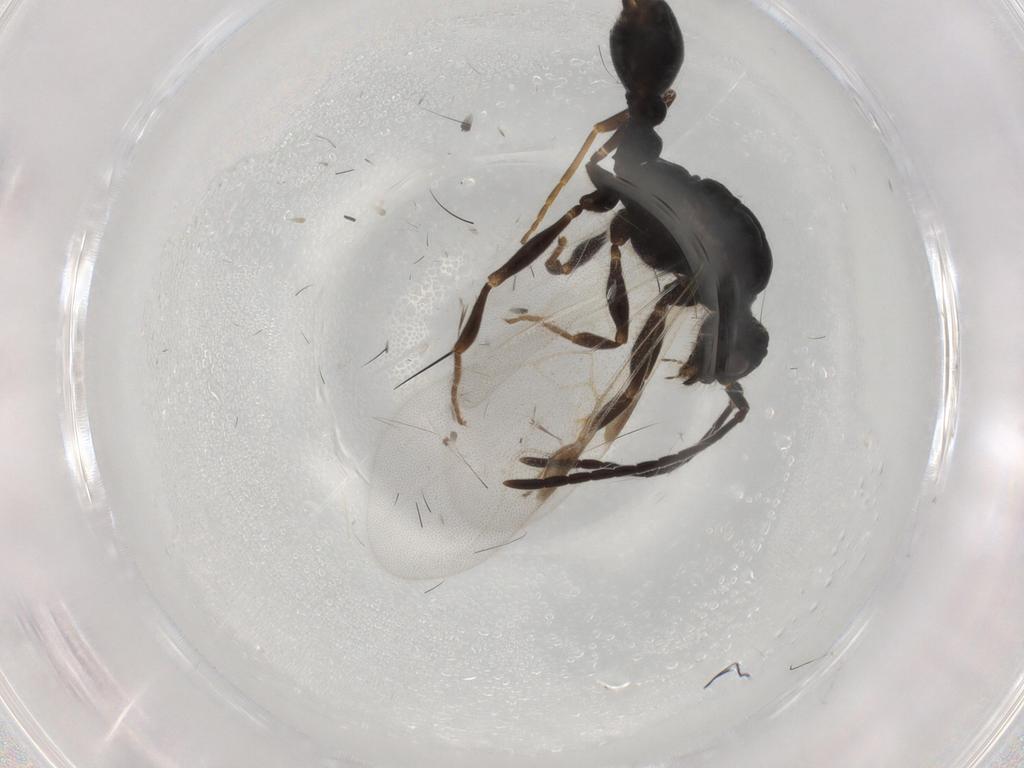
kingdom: Animalia
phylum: Arthropoda
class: Insecta
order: Hymenoptera
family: Formicidae
